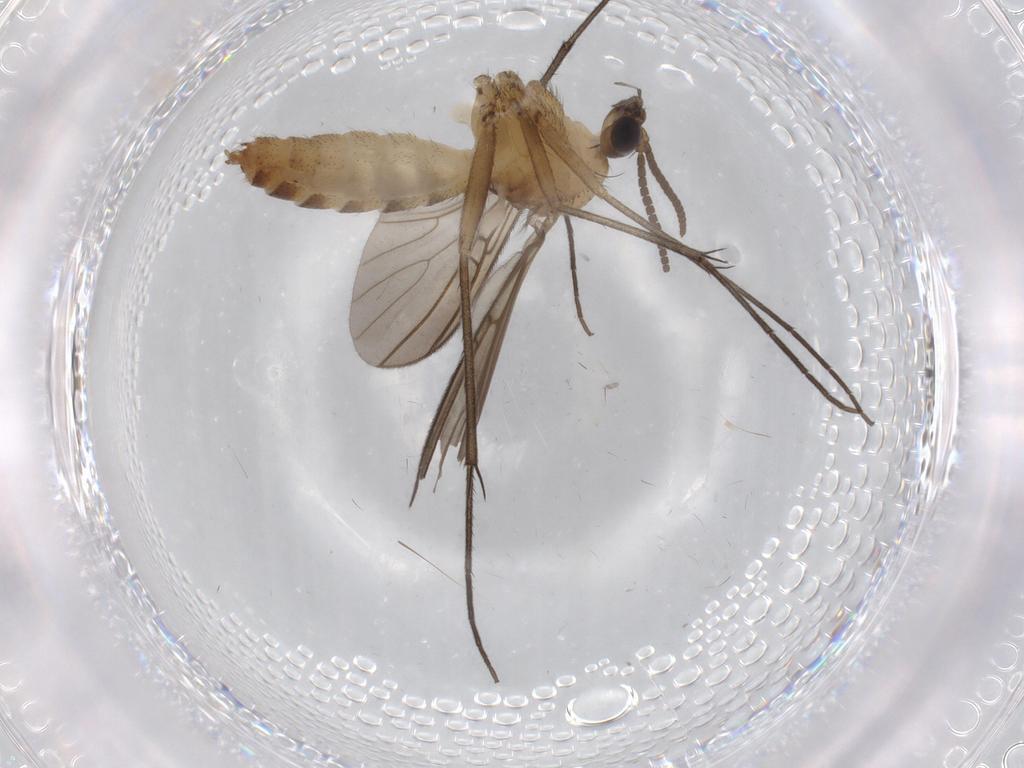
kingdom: Animalia
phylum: Arthropoda
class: Insecta
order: Diptera
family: Mycetophilidae
